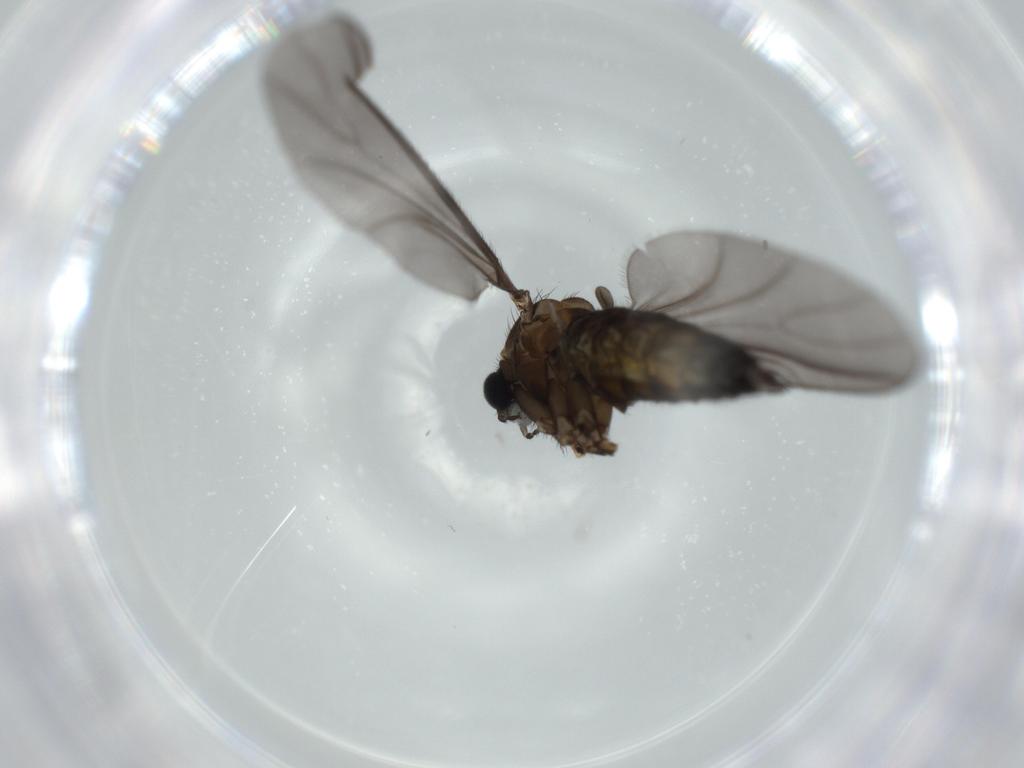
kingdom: Animalia
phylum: Arthropoda
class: Insecta
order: Diptera
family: Sciaridae
